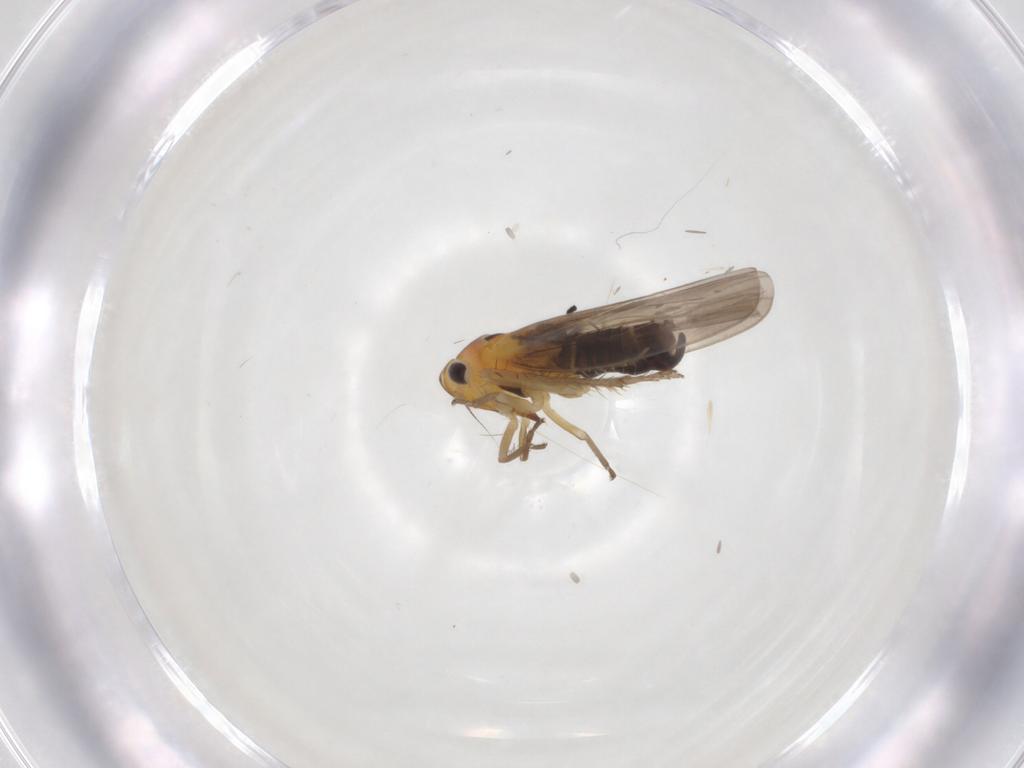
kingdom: Animalia
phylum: Arthropoda
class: Insecta
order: Hemiptera
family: Cicadellidae
